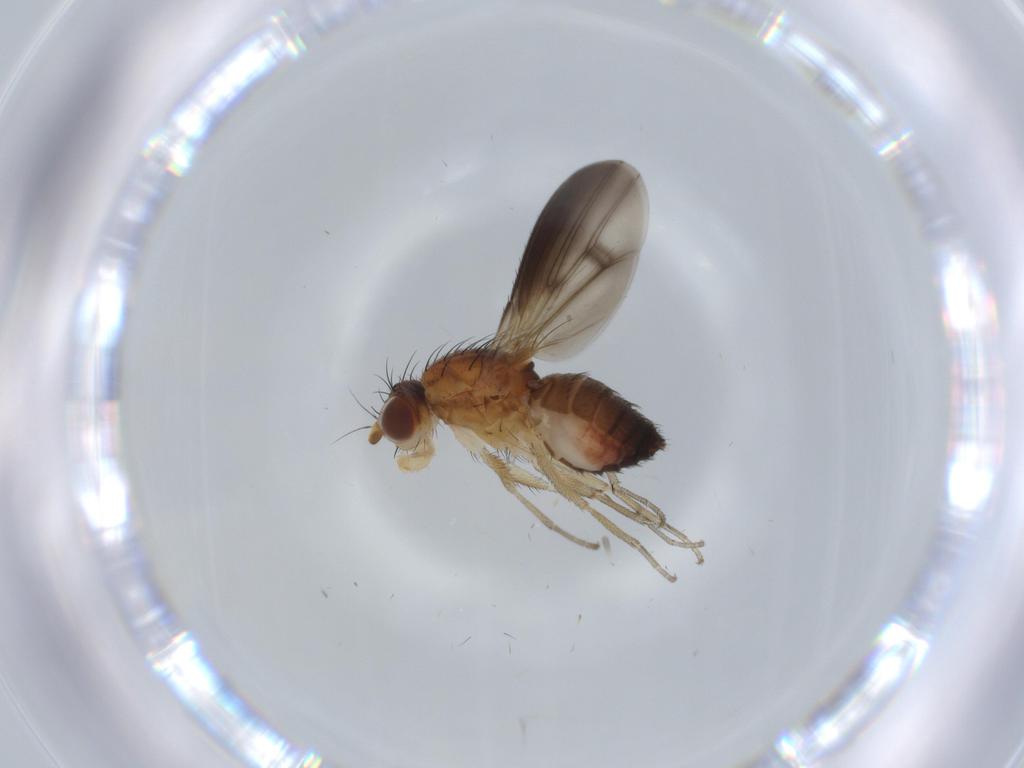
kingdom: Animalia
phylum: Arthropoda
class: Insecta
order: Diptera
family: Heleomyzidae
